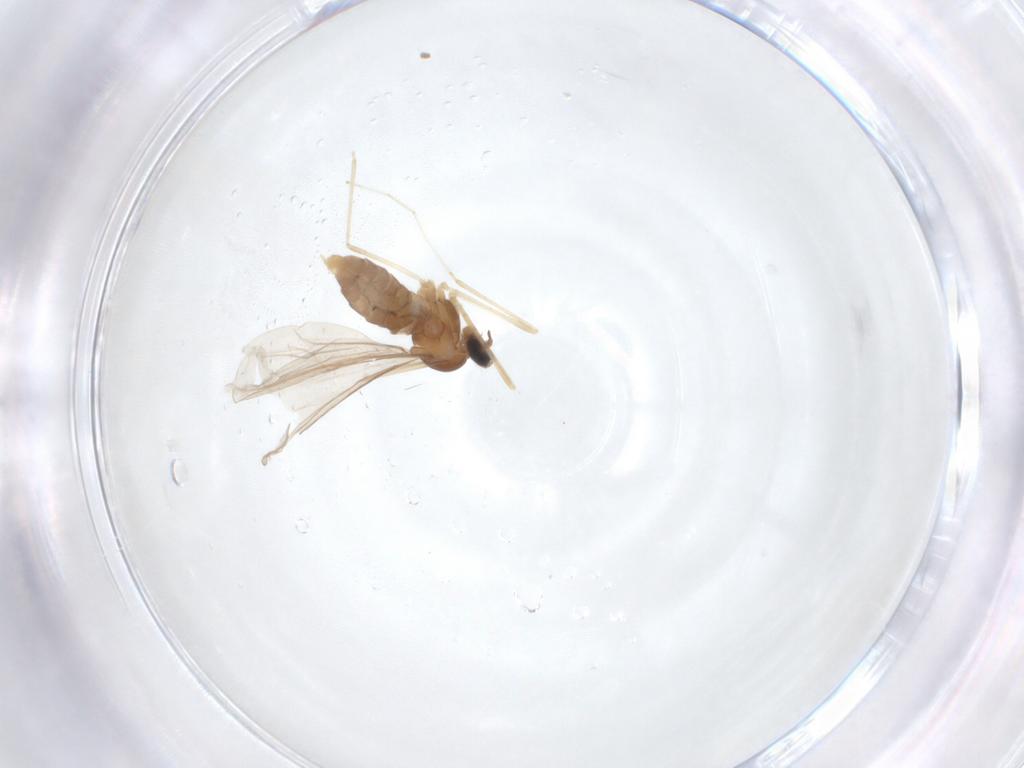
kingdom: Animalia
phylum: Arthropoda
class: Insecta
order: Diptera
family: Cecidomyiidae
